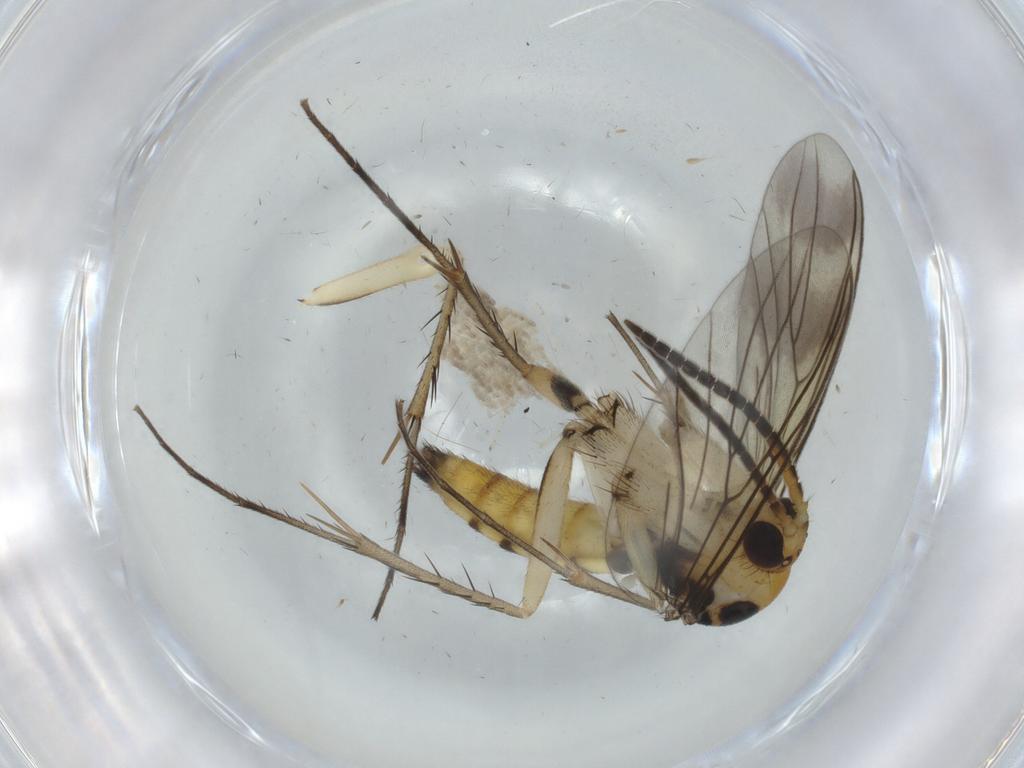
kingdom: Animalia
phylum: Arthropoda
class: Insecta
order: Diptera
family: Mycetophilidae
